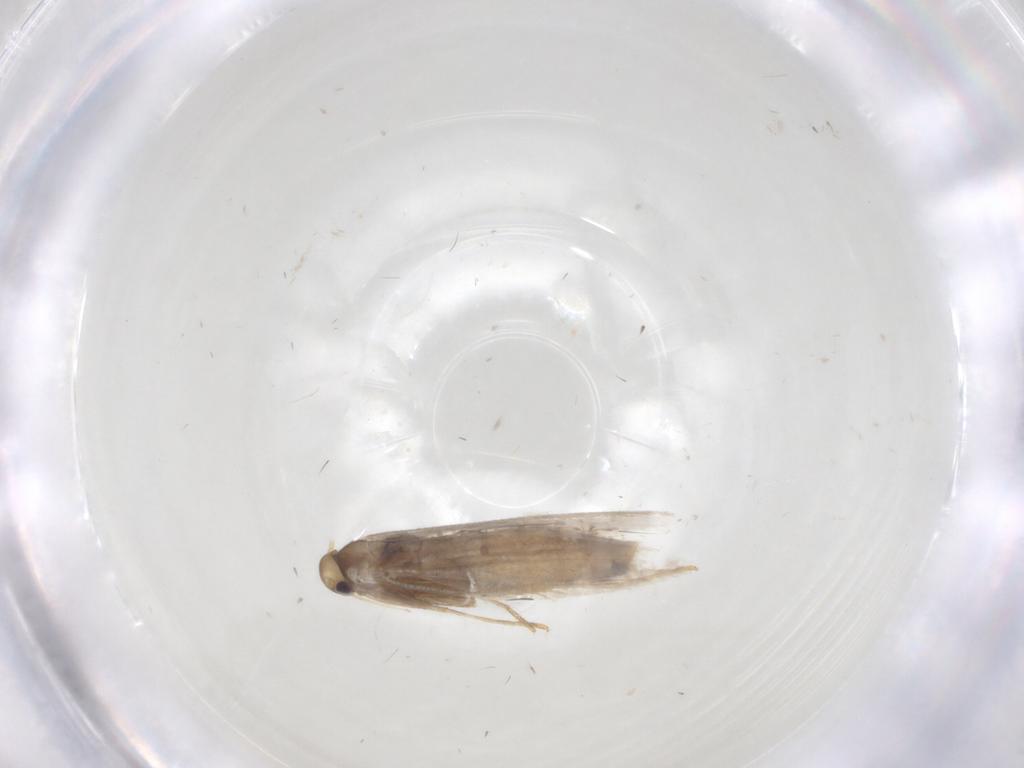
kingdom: Animalia
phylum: Arthropoda
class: Insecta
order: Lepidoptera
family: Gracillariidae
